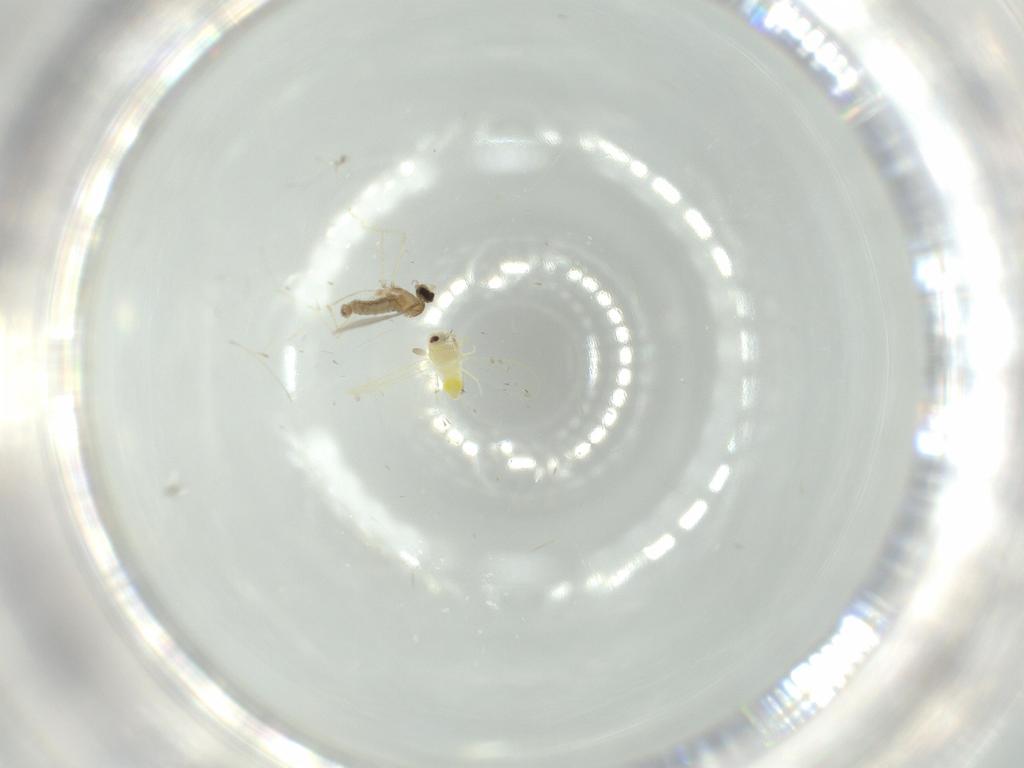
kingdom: Animalia
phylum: Arthropoda
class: Insecta
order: Diptera
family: Cecidomyiidae
